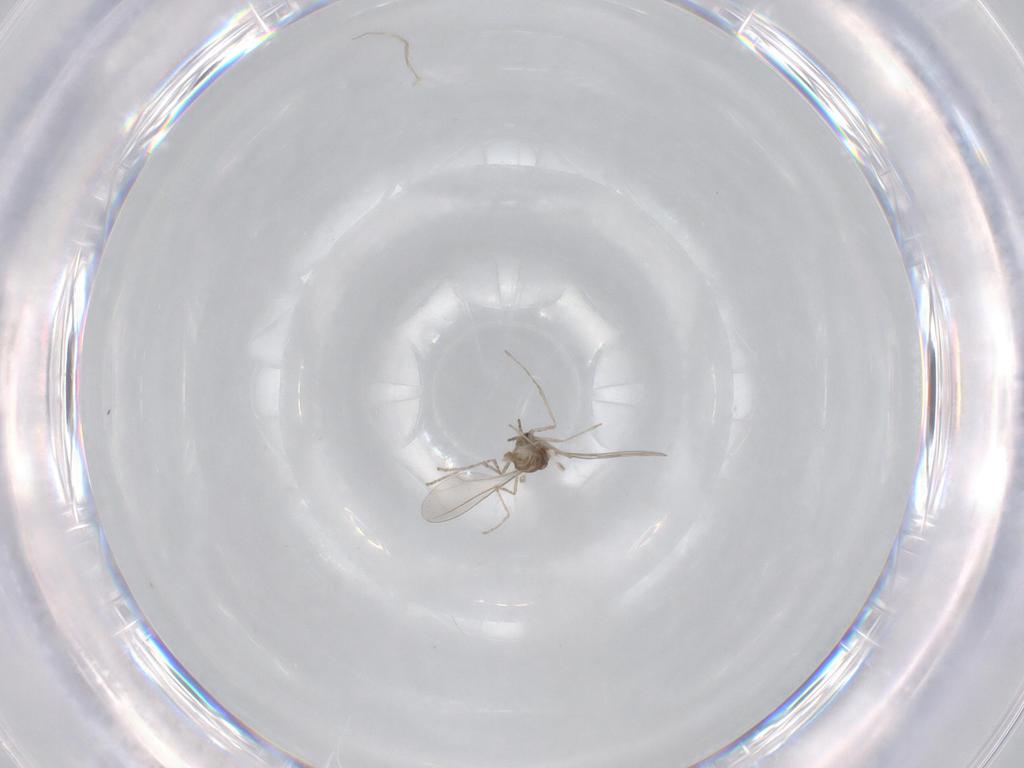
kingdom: Animalia
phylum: Arthropoda
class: Insecta
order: Diptera
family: Cecidomyiidae
